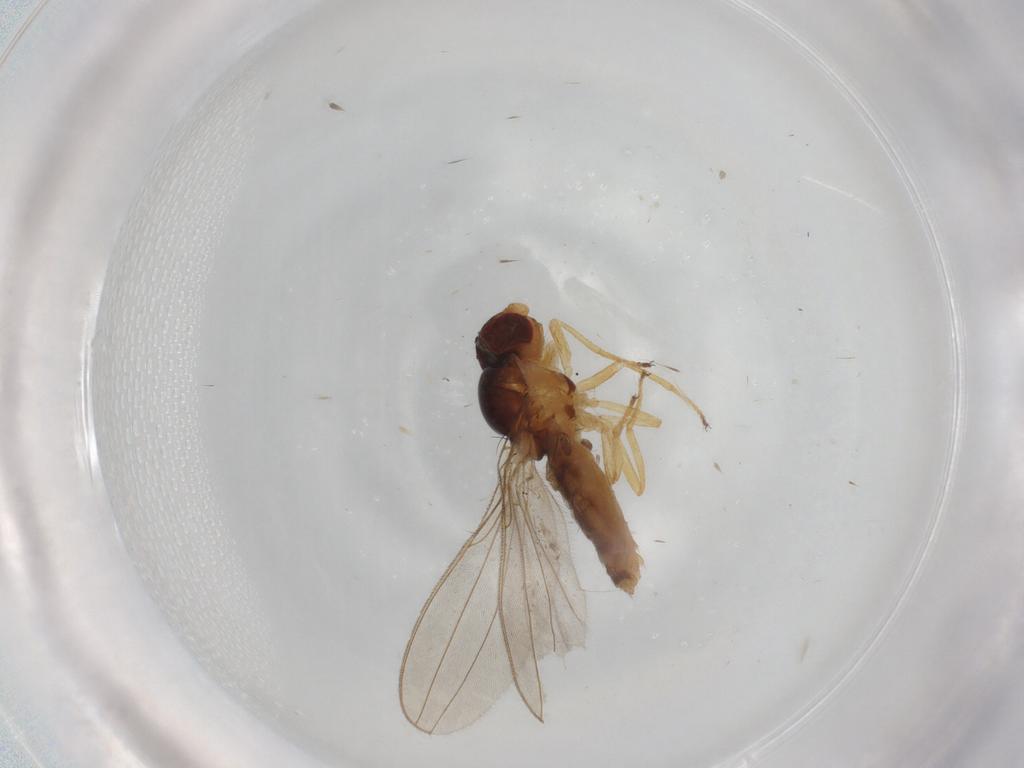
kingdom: Animalia
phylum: Arthropoda
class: Insecta
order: Diptera
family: Asteiidae
